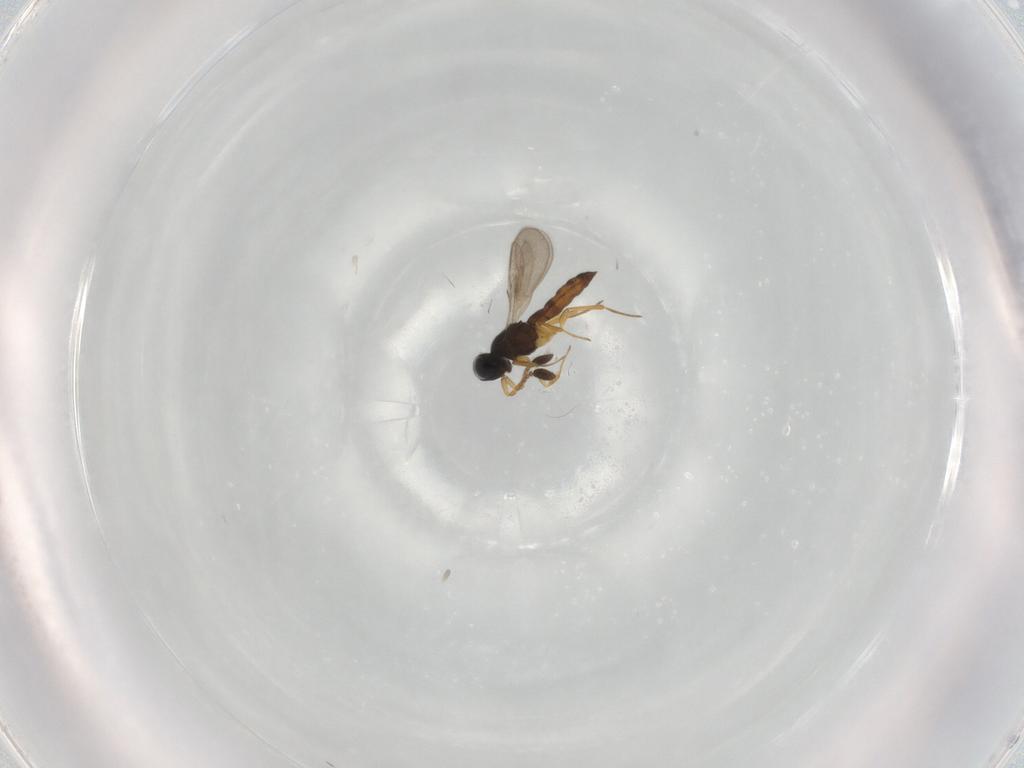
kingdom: Animalia
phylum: Arthropoda
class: Insecta
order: Hymenoptera
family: Scelionidae
